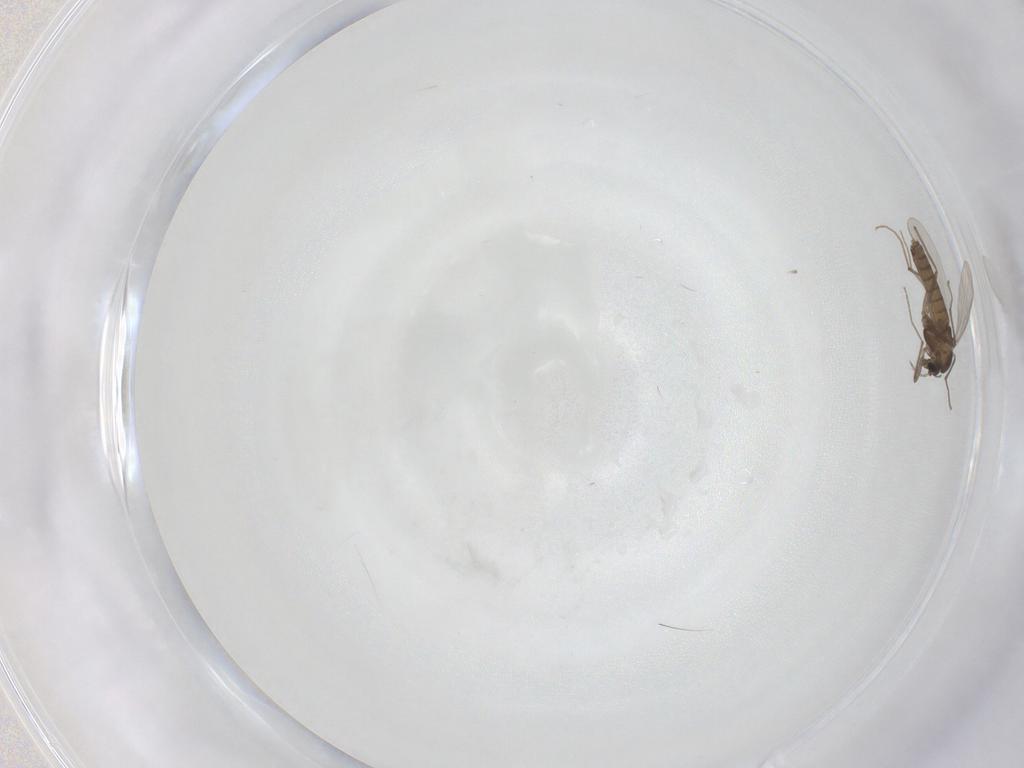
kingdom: Animalia
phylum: Arthropoda
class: Insecta
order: Diptera
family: Chironomidae
